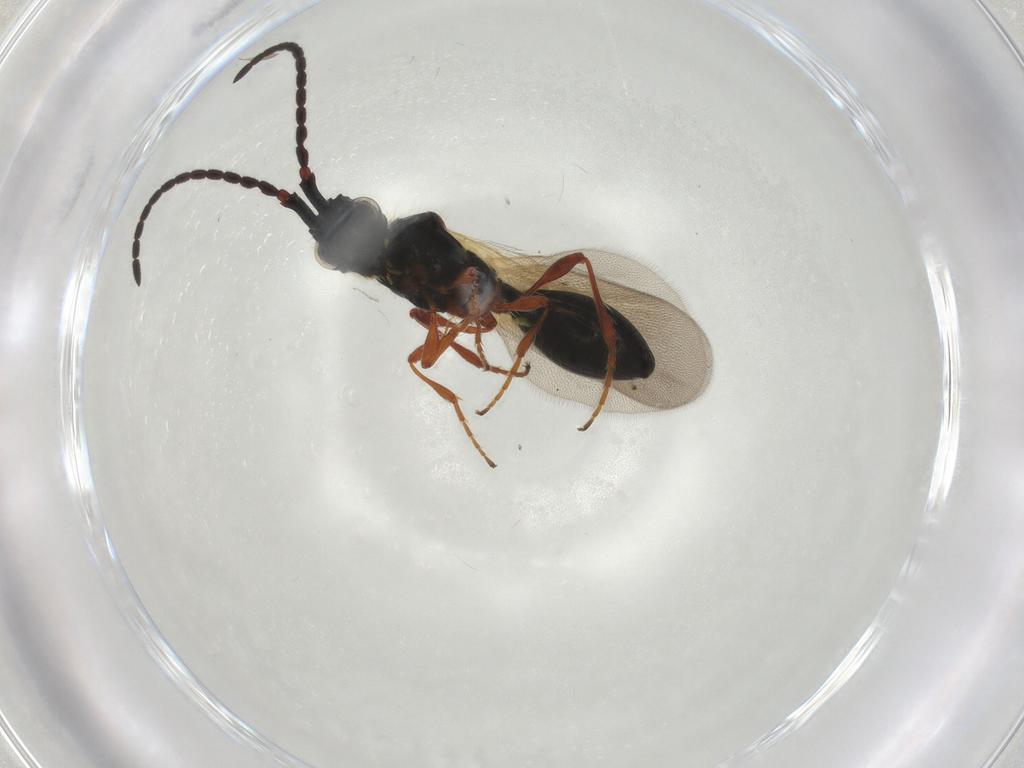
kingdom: Animalia
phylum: Arthropoda
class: Insecta
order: Hymenoptera
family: Diapriidae
